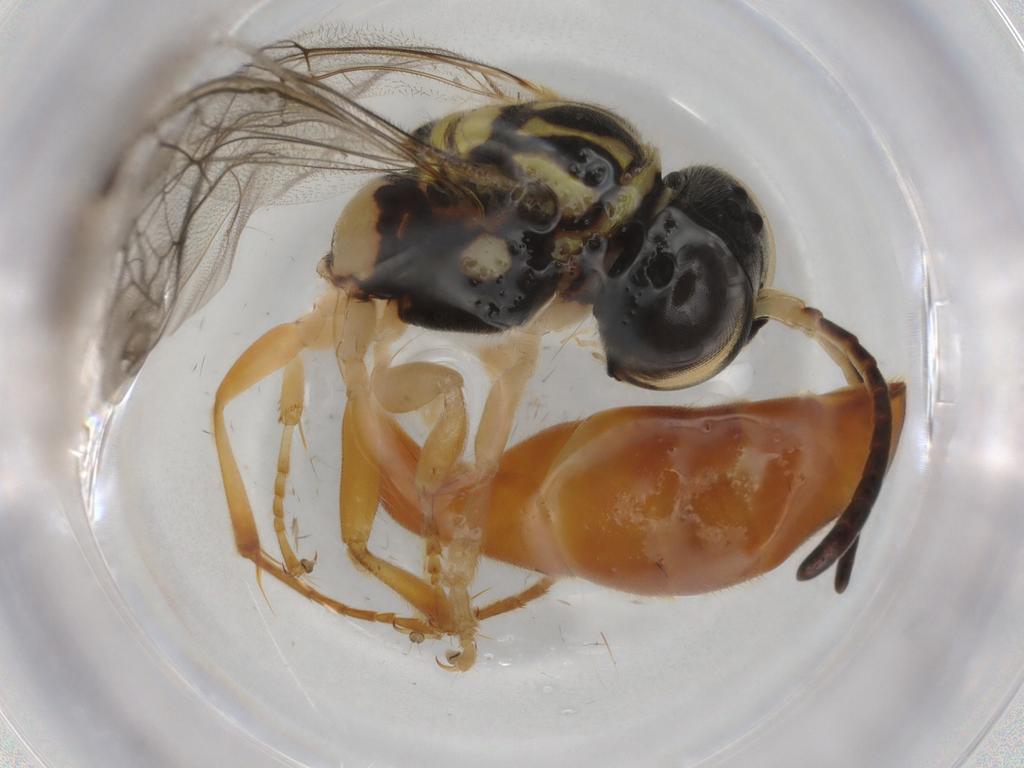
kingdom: Animalia
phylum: Arthropoda
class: Insecta
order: Hymenoptera
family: Psenidae
